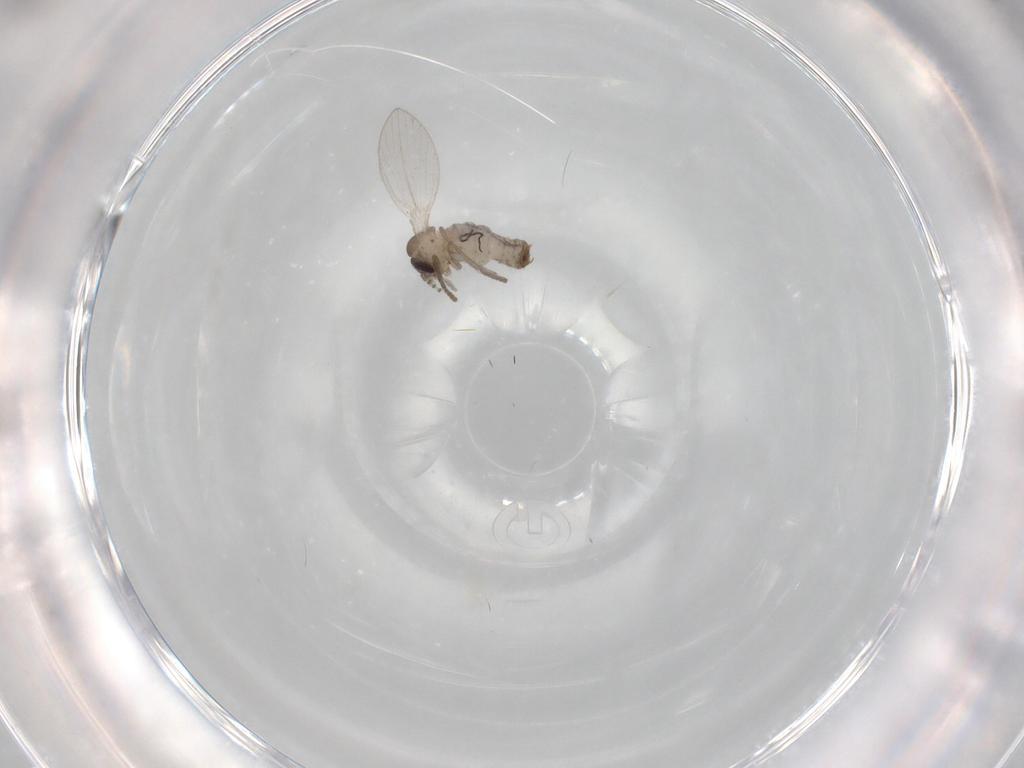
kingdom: Animalia
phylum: Arthropoda
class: Insecta
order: Diptera
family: Psychodidae
